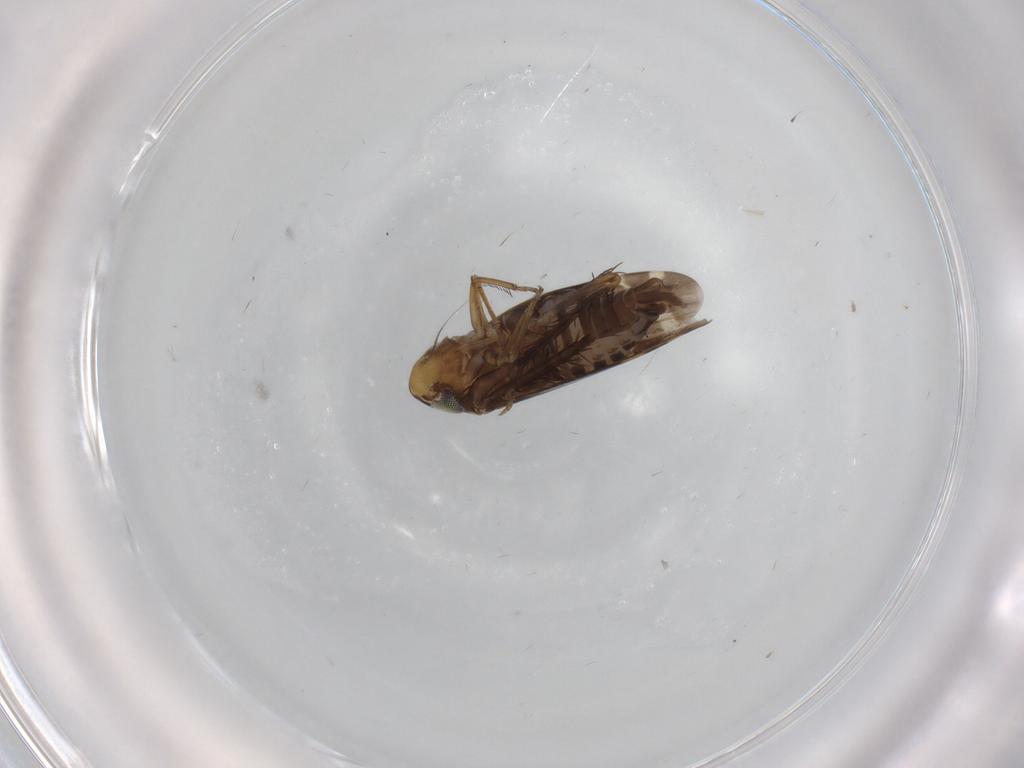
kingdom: Animalia
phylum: Arthropoda
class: Insecta
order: Hemiptera
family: Cicadellidae
